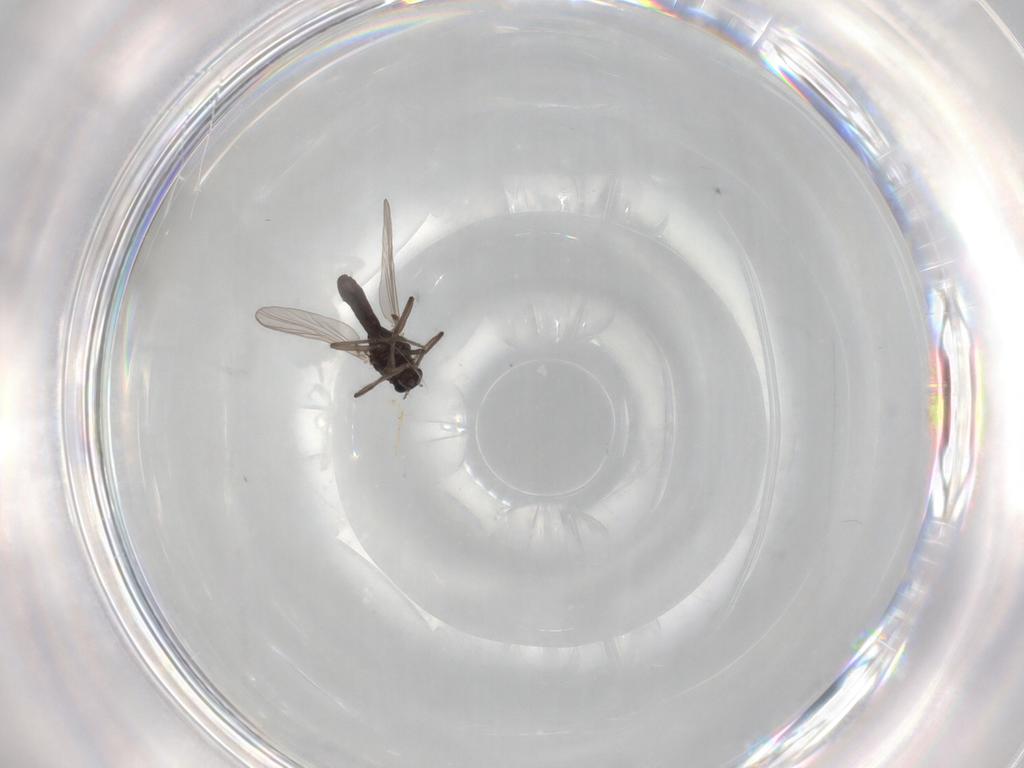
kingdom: Animalia
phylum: Arthropoda
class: Insecta
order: Diptera
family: Chironomidae
